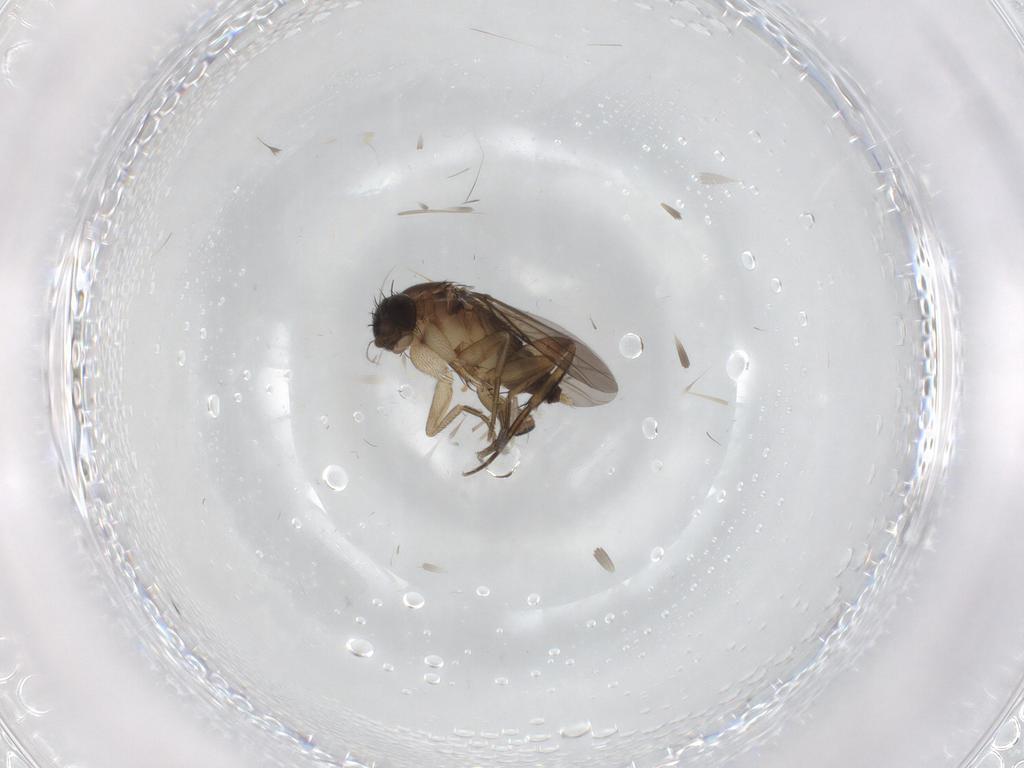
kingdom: Animalia
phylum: Arthropoda
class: Insecta
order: Diptera
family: Phoridae
